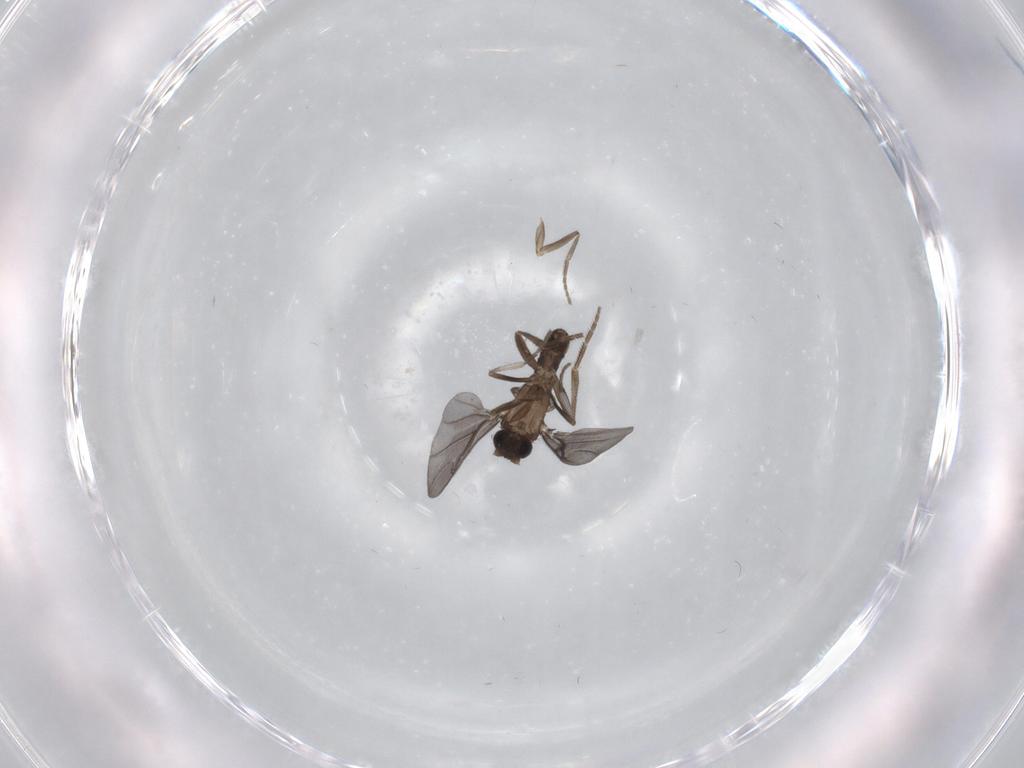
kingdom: Animalia
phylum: Arthropoda
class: Insecta
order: Diptera
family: Phoridae
